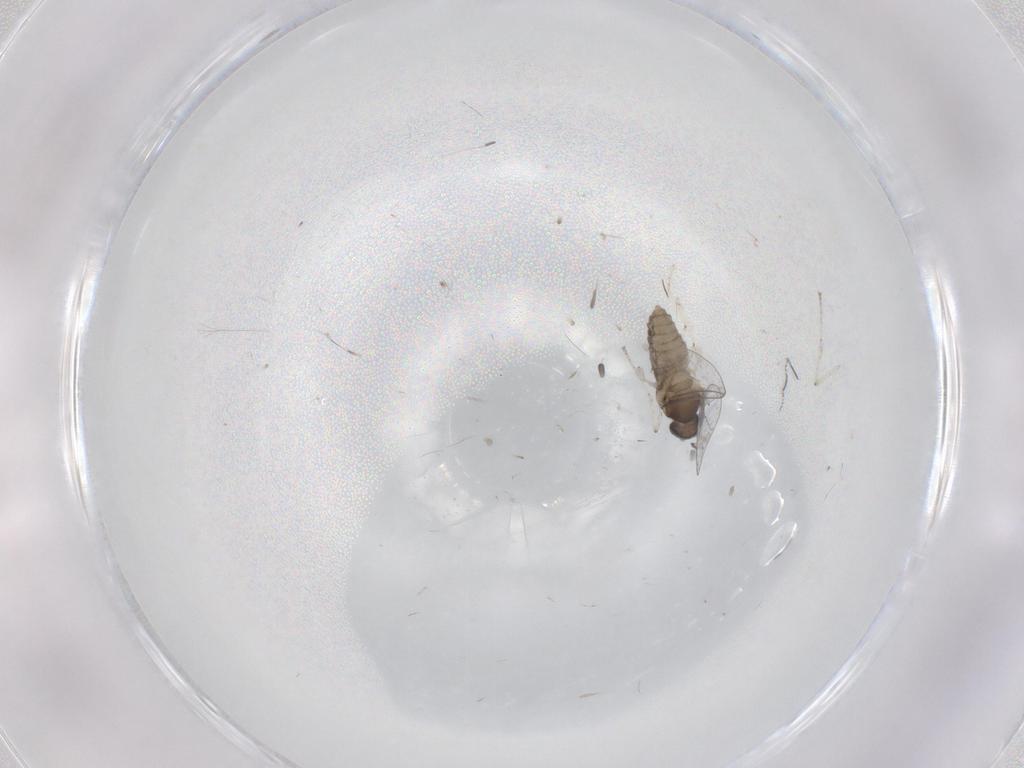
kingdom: Animalia
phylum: Arthropoda
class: Insecta
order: Diptera
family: Cecidomyiidae
